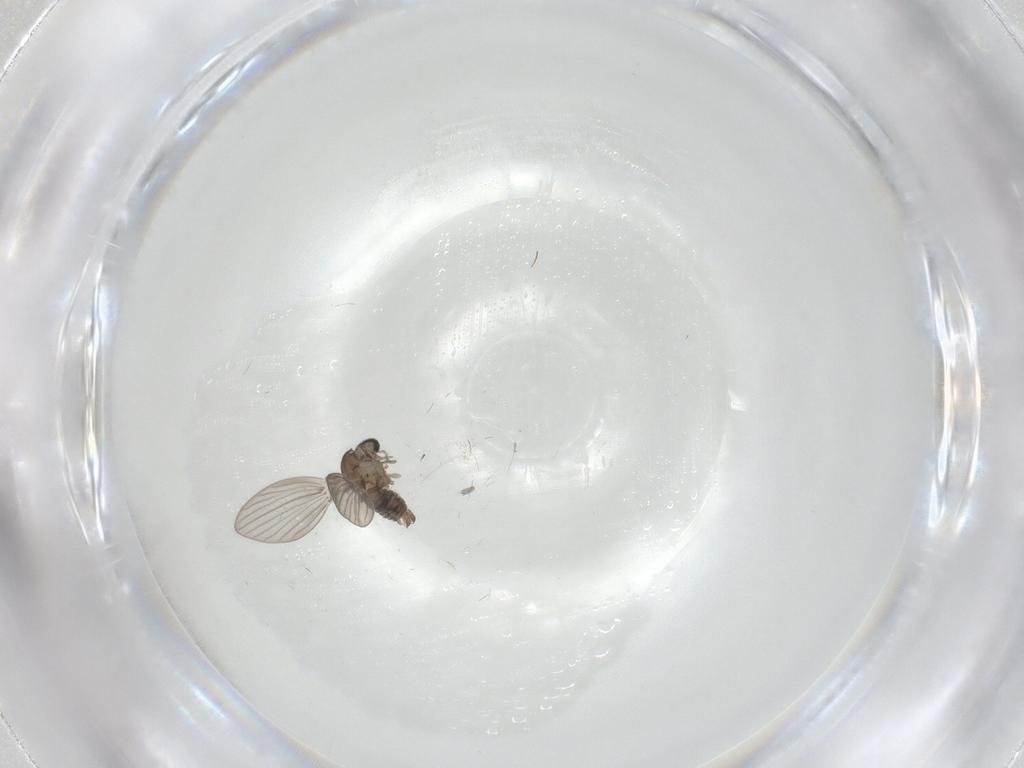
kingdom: Animalia
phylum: Arthropoda
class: Insecta
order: Diptera
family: Psychodidae
